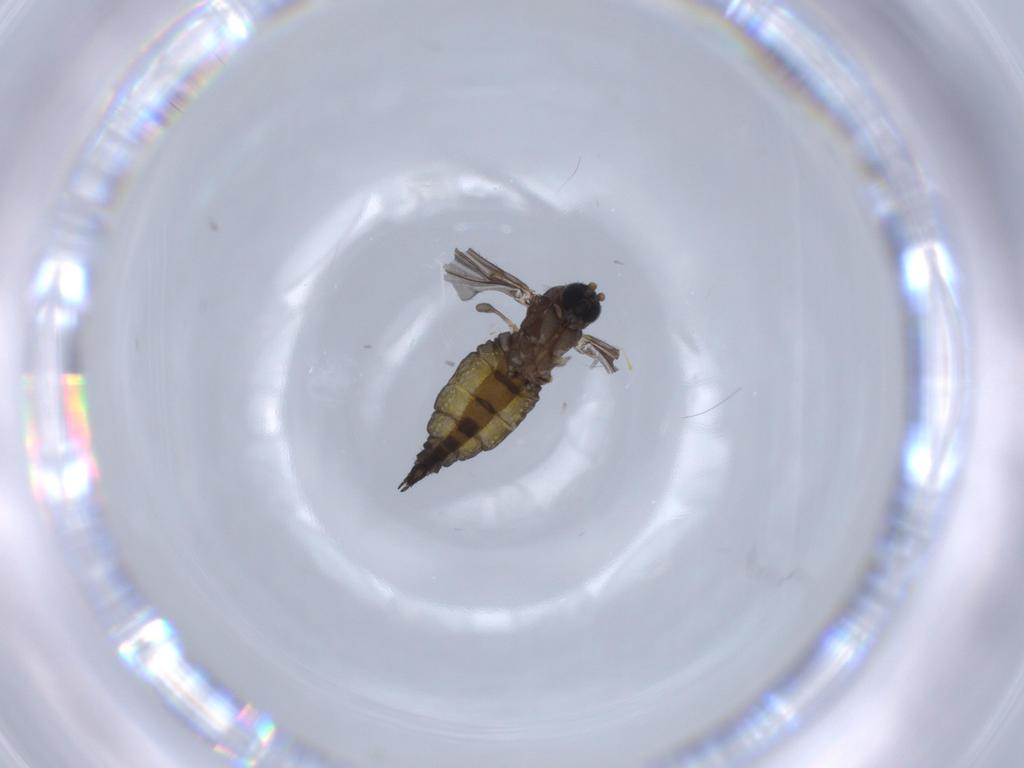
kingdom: Animalia
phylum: Arthropoda
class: Insecta
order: Diptera
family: Sciaridae
